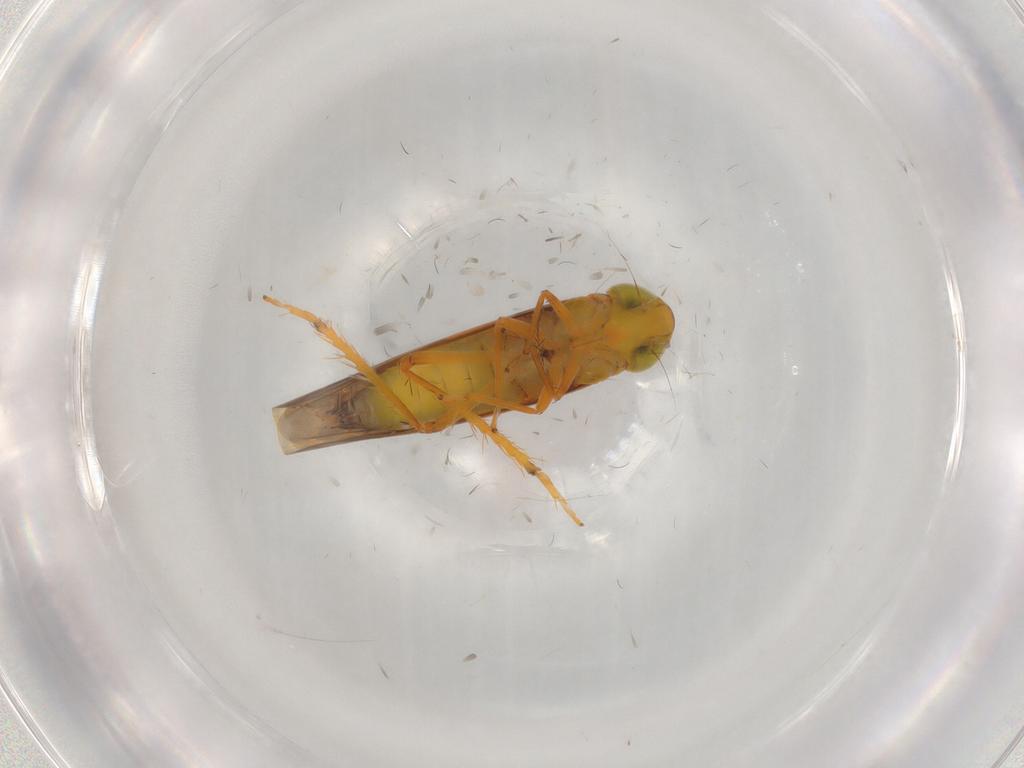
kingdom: Animalia
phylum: Arthropoda
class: Insecta
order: Hemiptera
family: Cicadellidae
